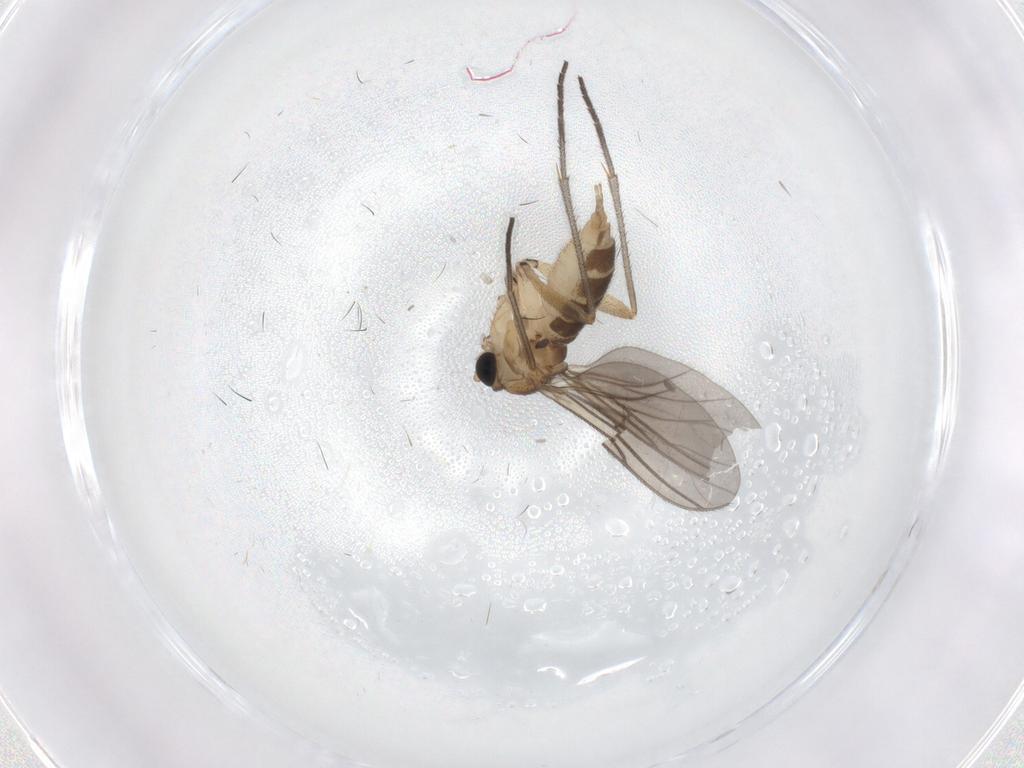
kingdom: Animalia
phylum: Arthropoda
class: Insecta
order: Diptera
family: Sciaridae
